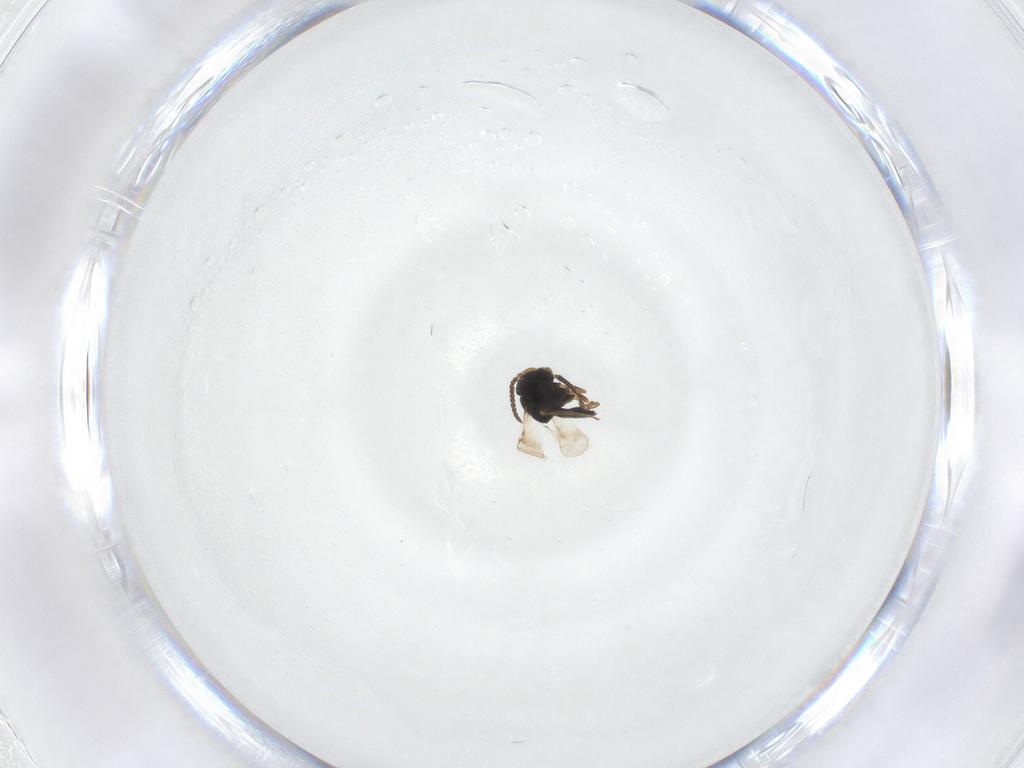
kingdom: Animalia
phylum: Arthropoda
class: Insecta
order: Hymenoptera
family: Scelionidae
